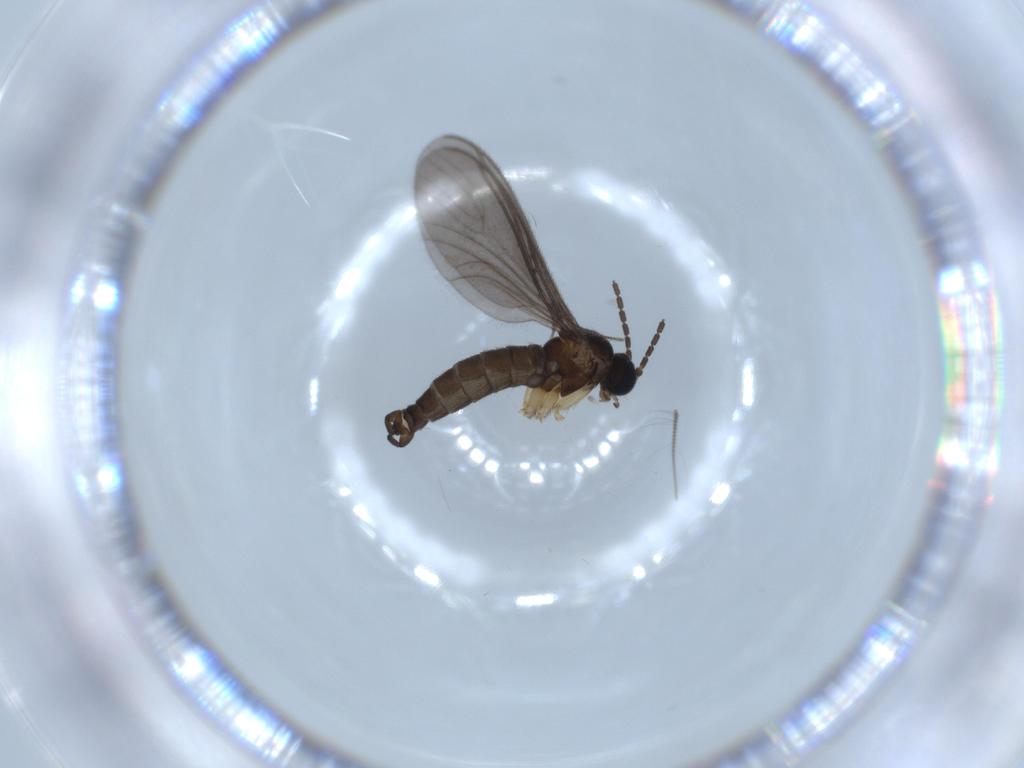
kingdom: Animalia
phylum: Arthropoda
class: Insecta
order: Diptera
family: Sciaridae
